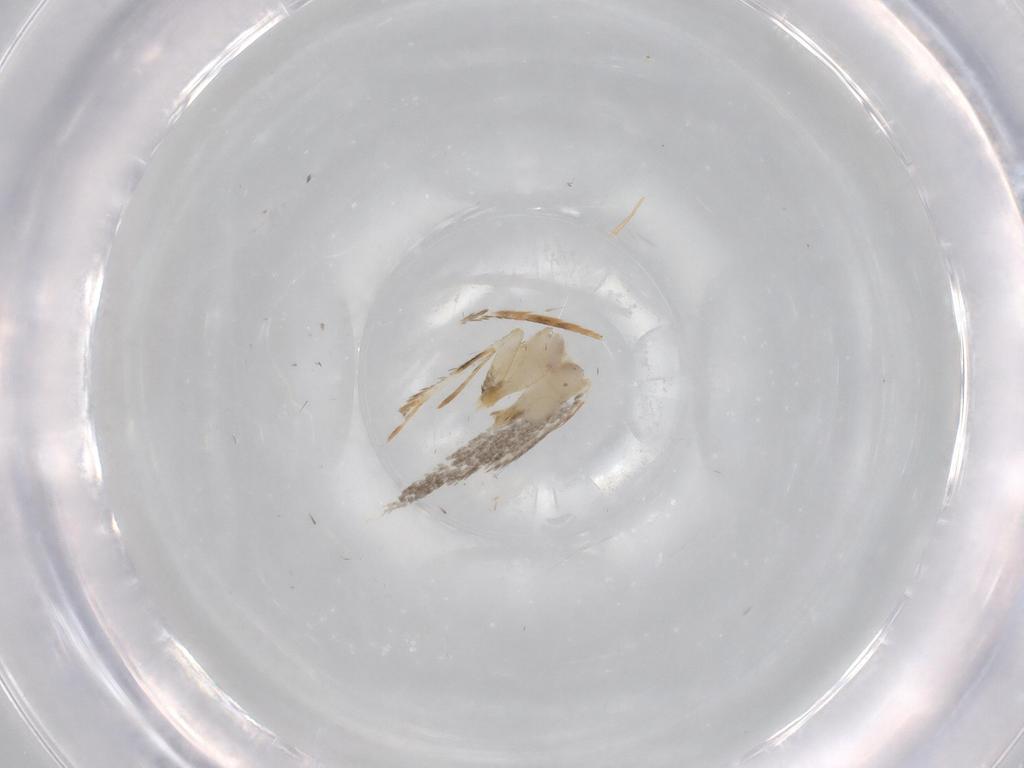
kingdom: Animalia
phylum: Arthropoda
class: Insecta
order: Lepidoptera
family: Tineidae
